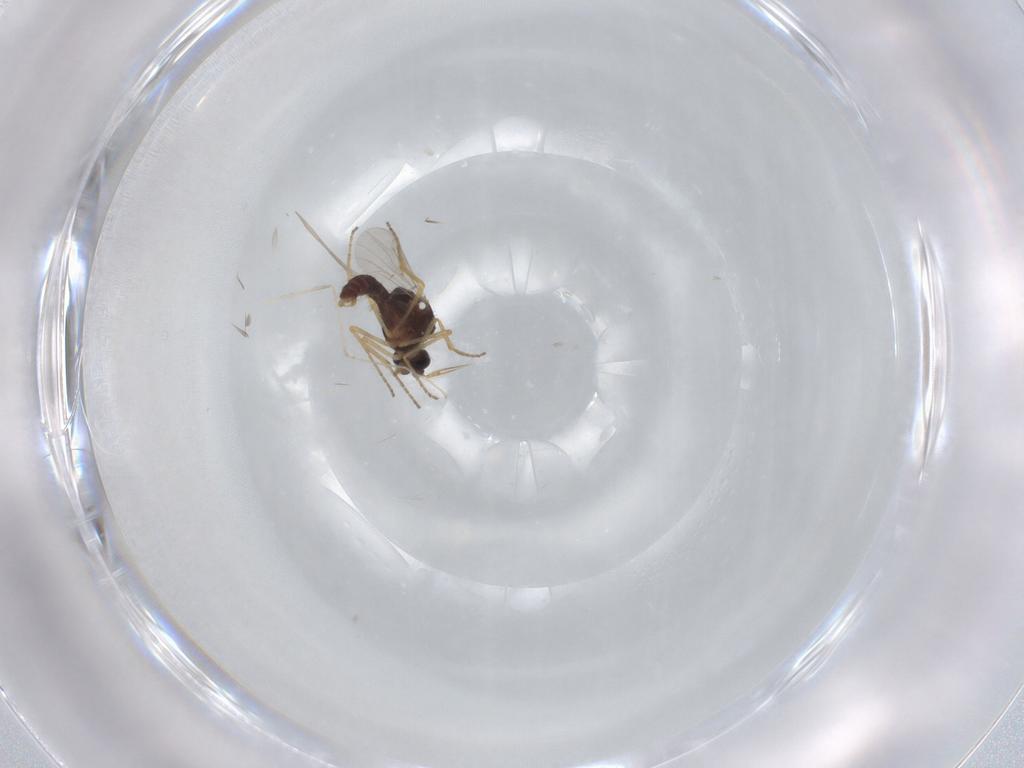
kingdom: Animalia
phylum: Arthropoda
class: Insecta
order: Diptera
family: Ceratopogonidae
